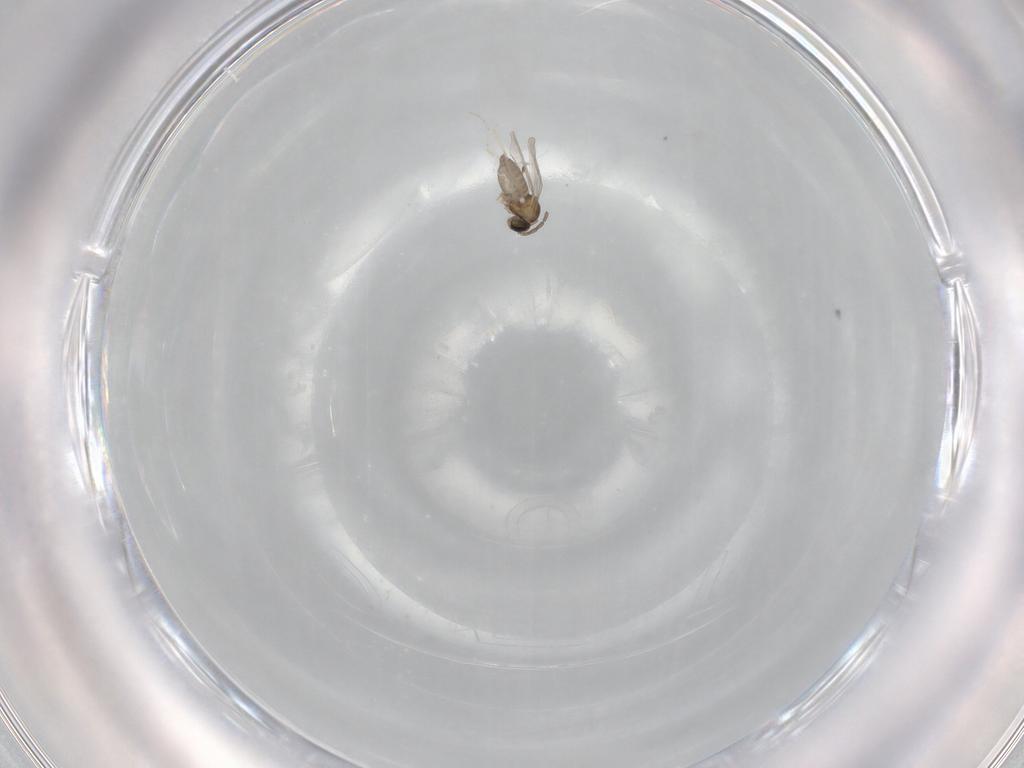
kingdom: Animalia
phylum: Arthropoda
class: Insecta
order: Diptera
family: Cecidomyiidae
